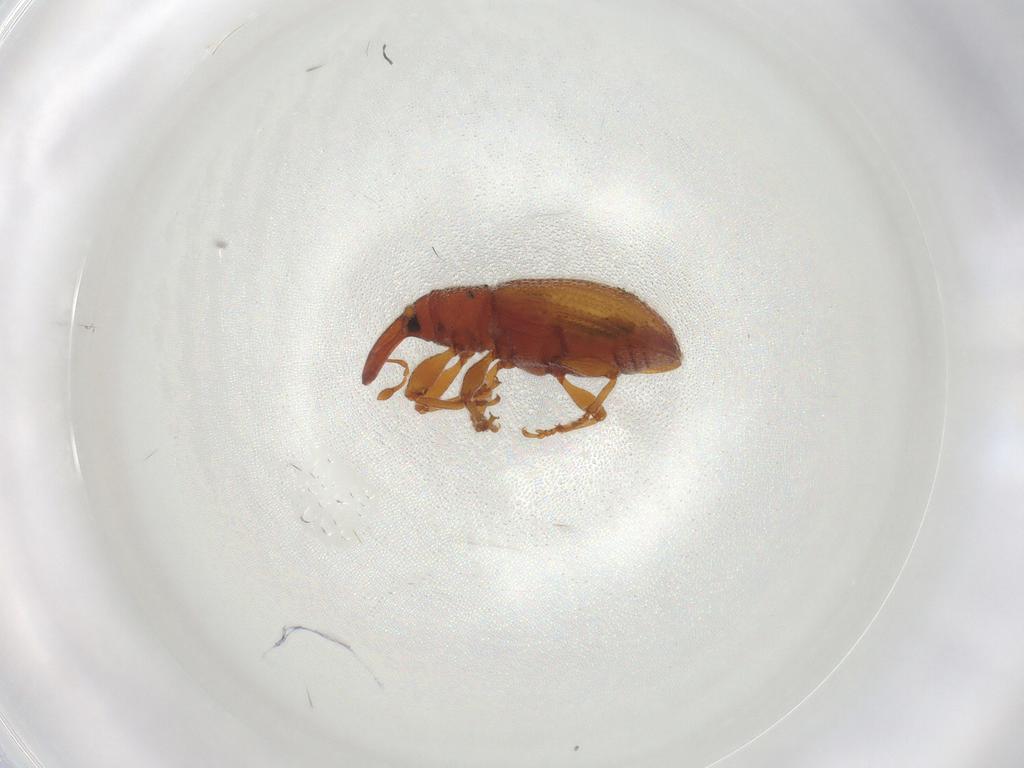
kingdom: Animalia
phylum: Arthropoda
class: Insecta
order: Coleoptera
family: Curculionidae
